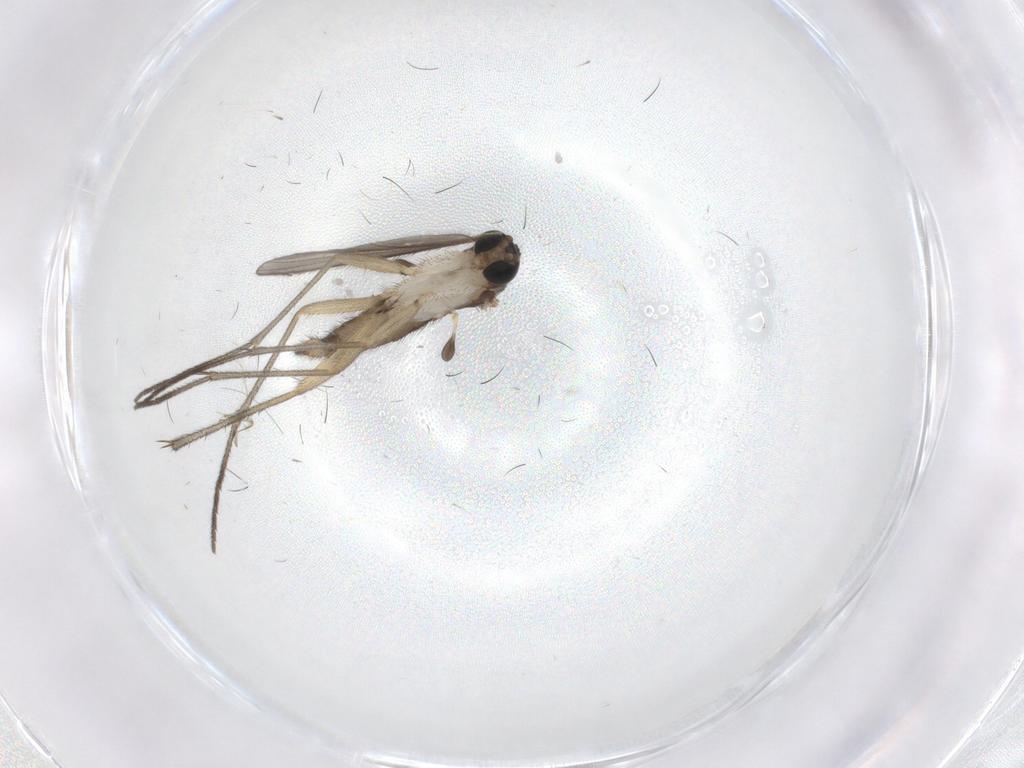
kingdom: Animalia
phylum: Arthropoda
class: Insecta
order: Diptera
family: Sciaridae
